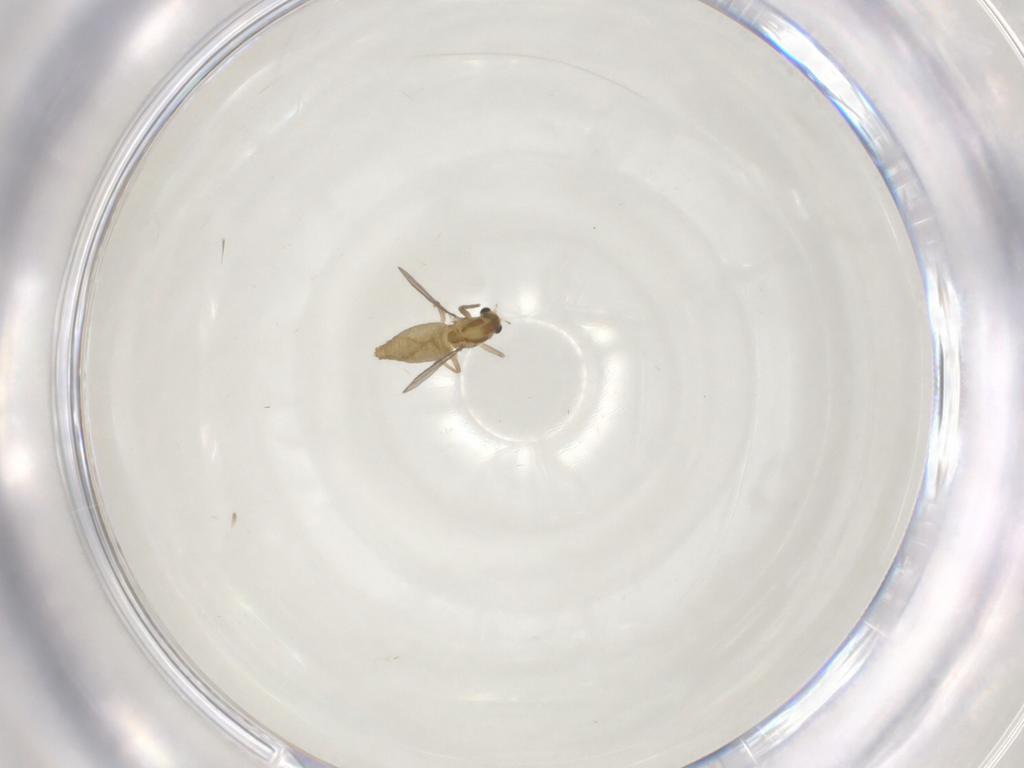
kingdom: Animalia
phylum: Arthropoda
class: Insecta
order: Diptera
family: Chironomidae
